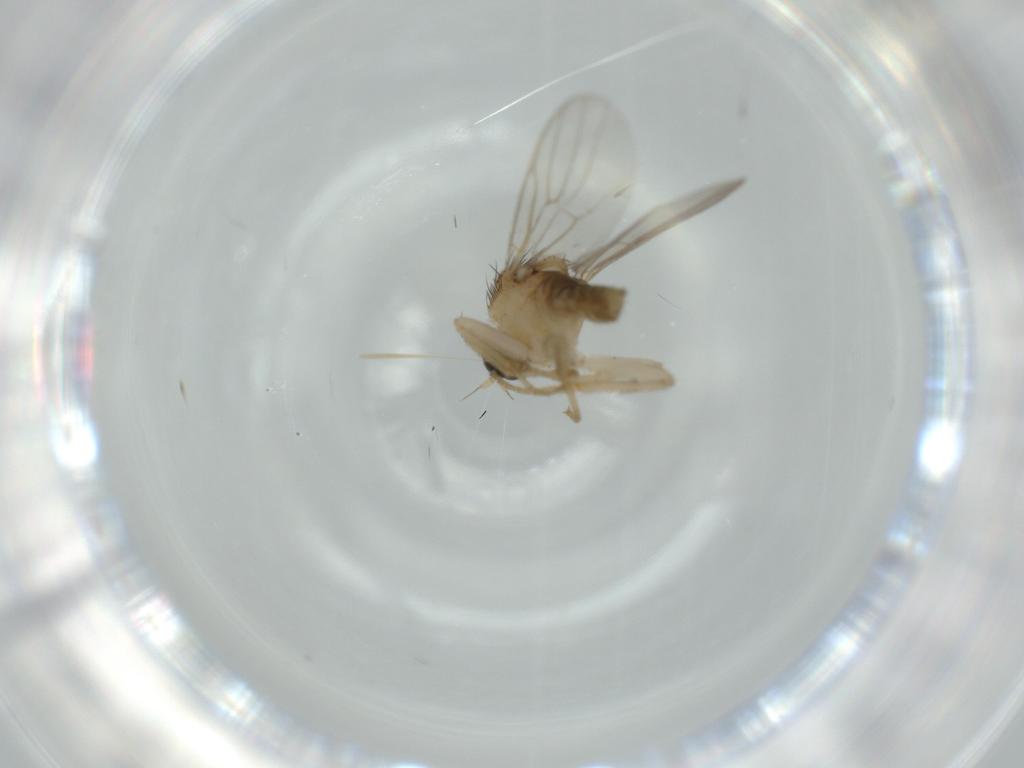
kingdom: Animalia
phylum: Arthropoda
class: Insecta
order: Diptera
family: Hybotidae
